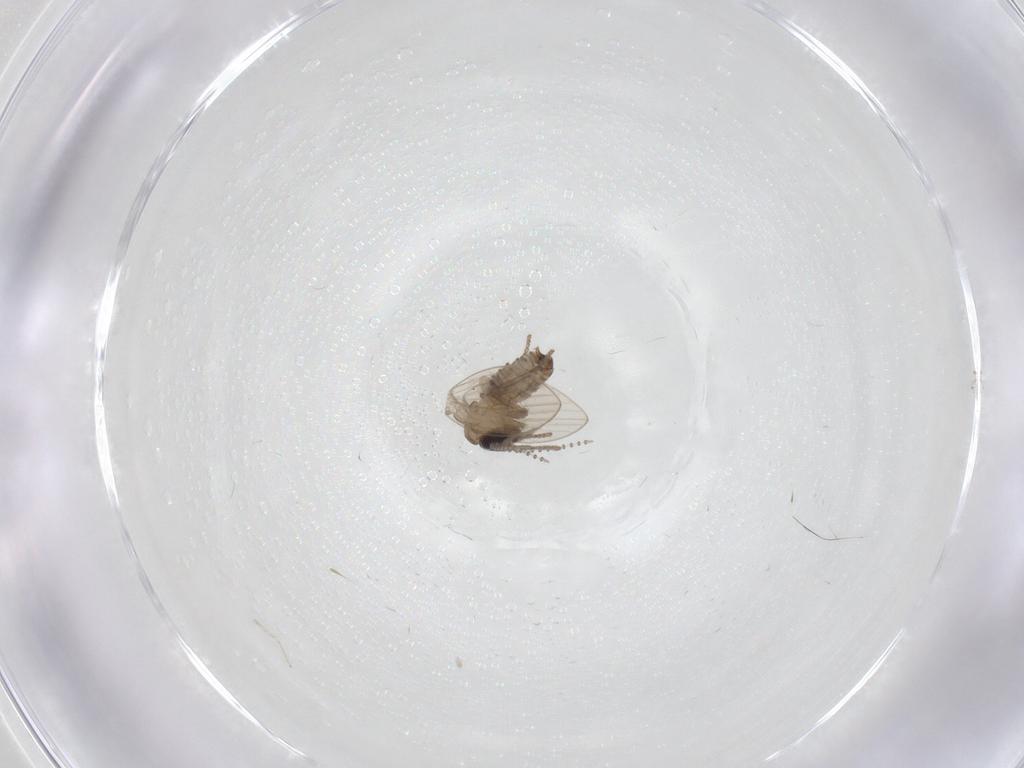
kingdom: Animalia
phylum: Arthropoda
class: Insecta
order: Diptera
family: Psychodidae
